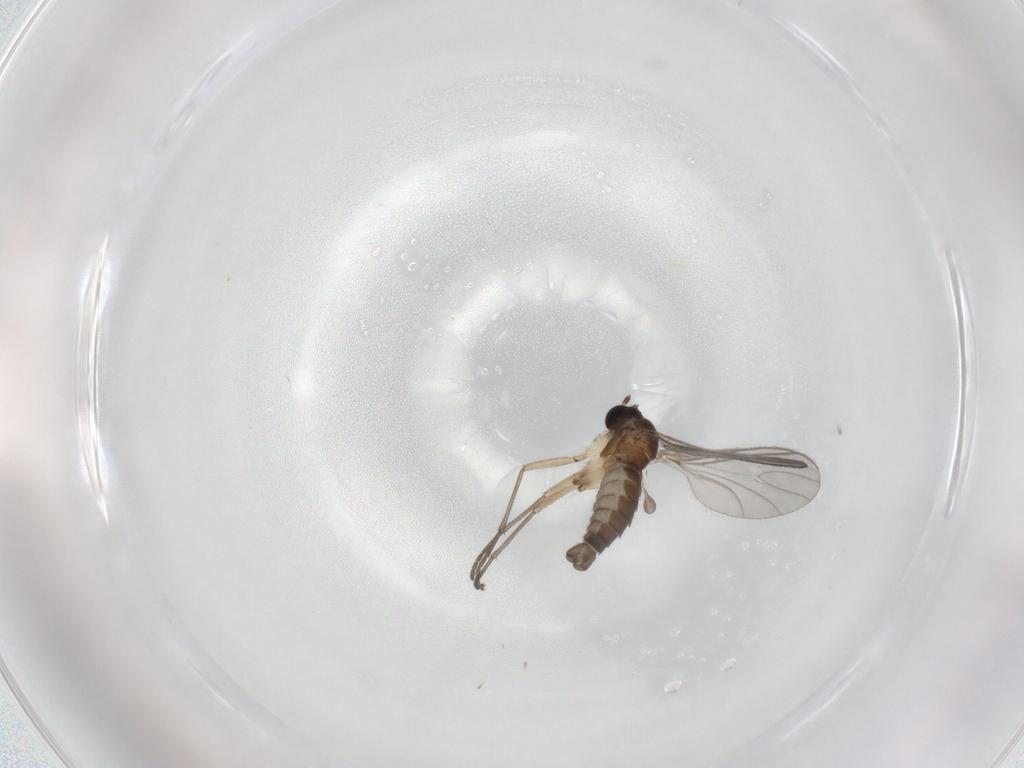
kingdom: Animalia
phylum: Arthropoda
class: Insecta
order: Diptera
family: Sciaridae
